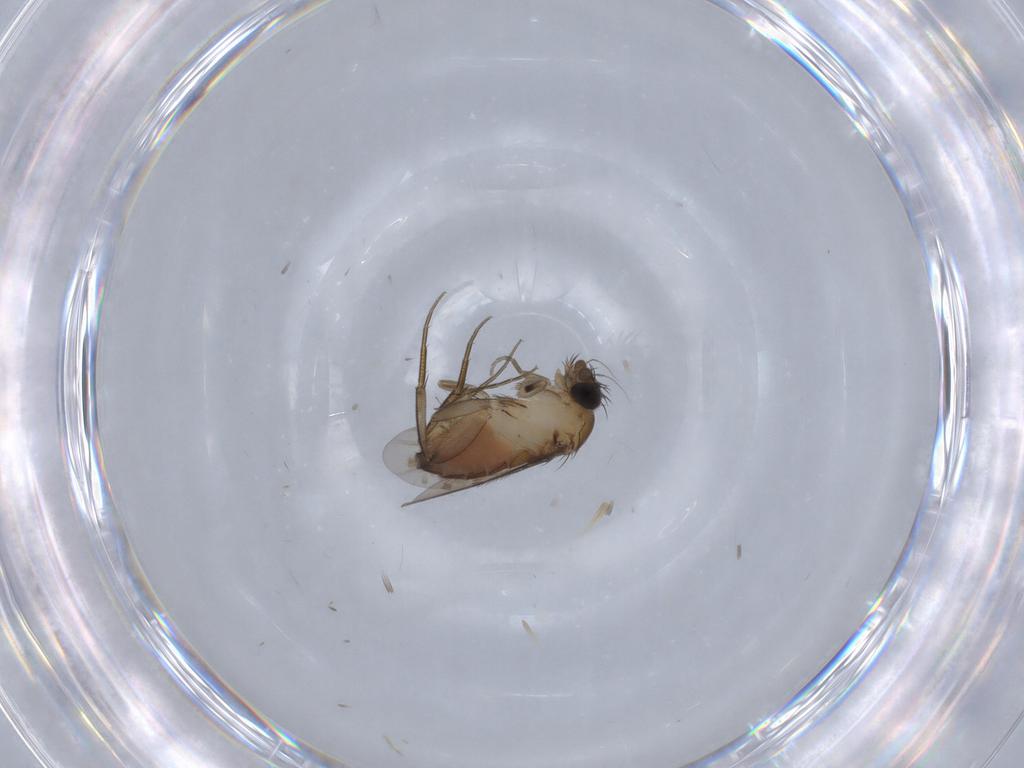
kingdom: Animalia
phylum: Arthropoda
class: Insecta
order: Diptera
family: Phoridae
